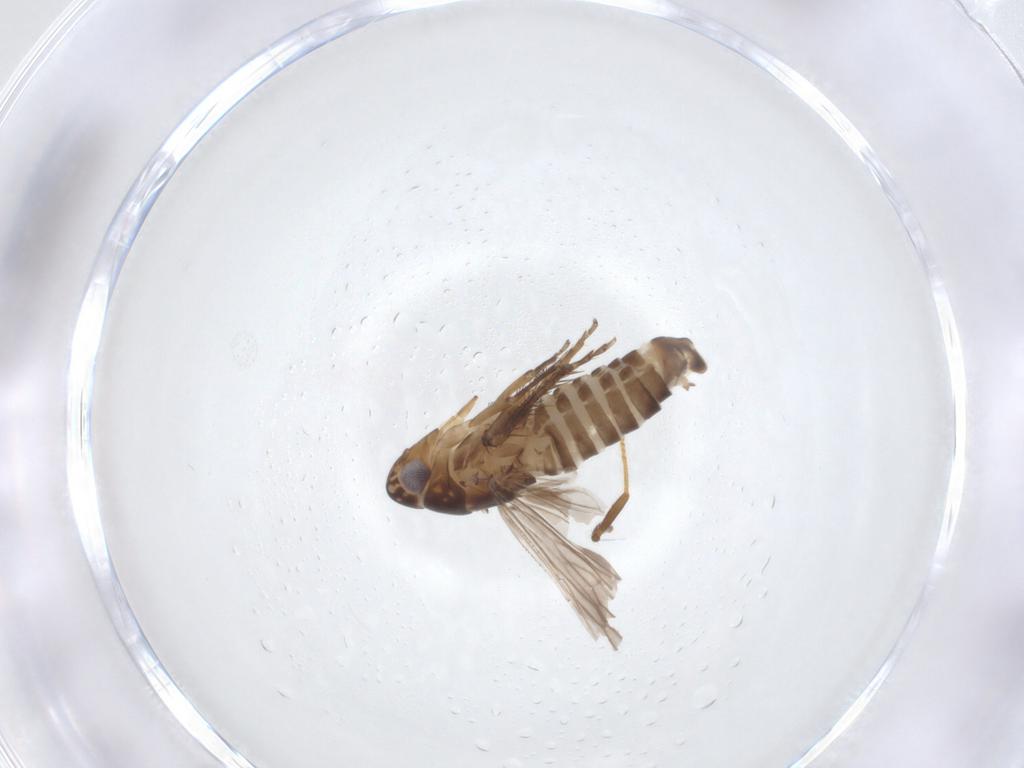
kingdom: Animalia
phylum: Arthropoda
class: Insecta
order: Hemiptera
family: Cicadellidae
